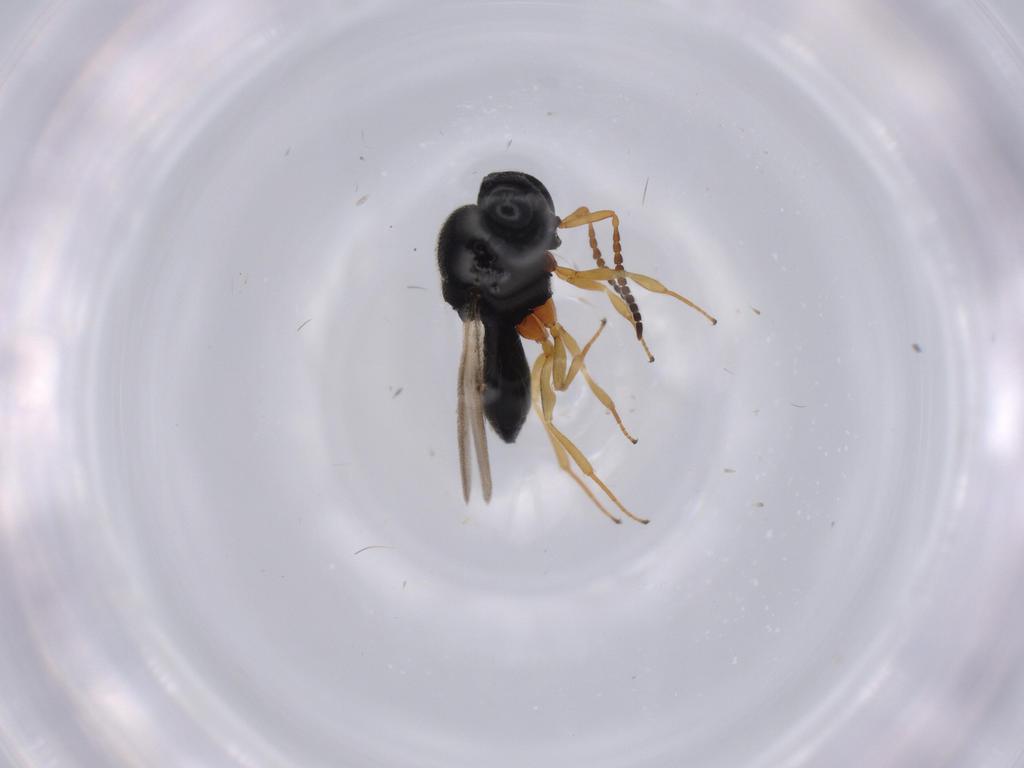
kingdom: Animalia
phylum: Arthropoda
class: Insecta
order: Hymenoptera
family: Scelionidae
